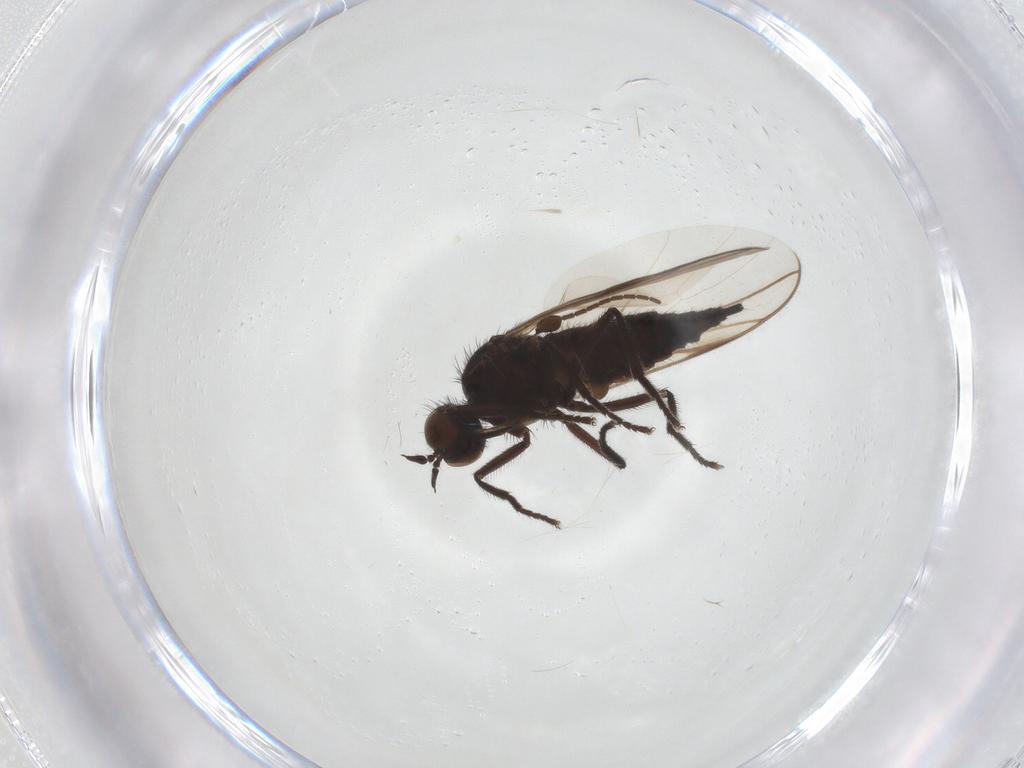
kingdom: Animalia
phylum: Arthropoda
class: Insecta
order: Diptera
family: Empididae
